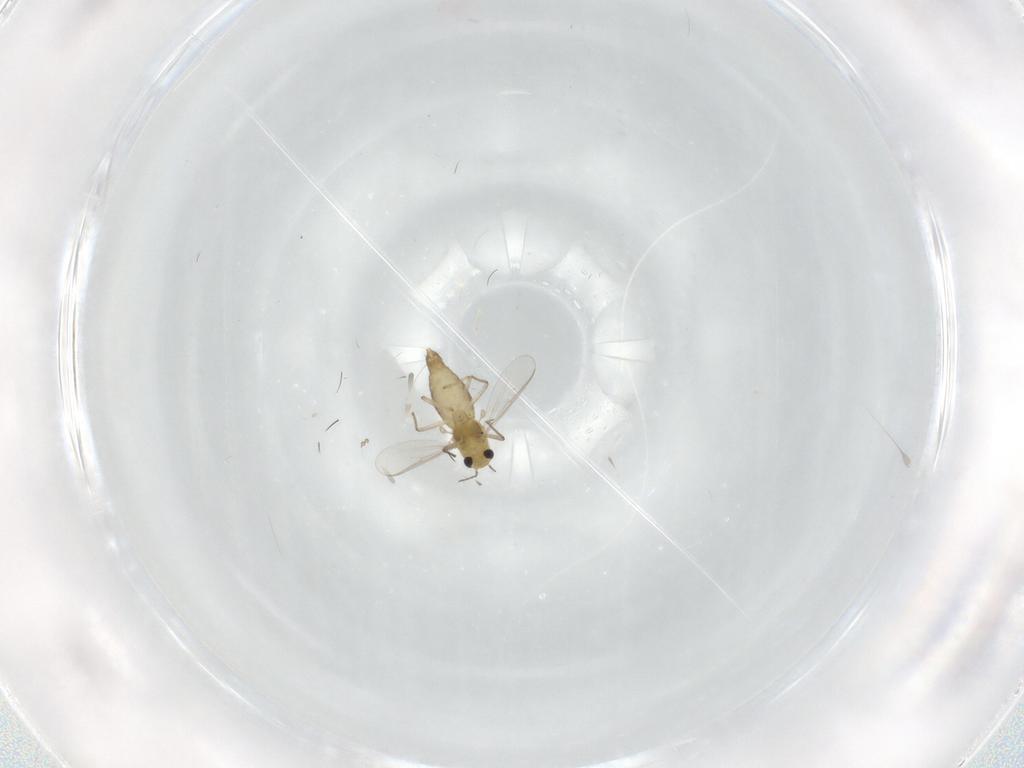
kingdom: Animalia
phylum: Arthropoda
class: Insecta
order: Diptera
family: Chironomidae
